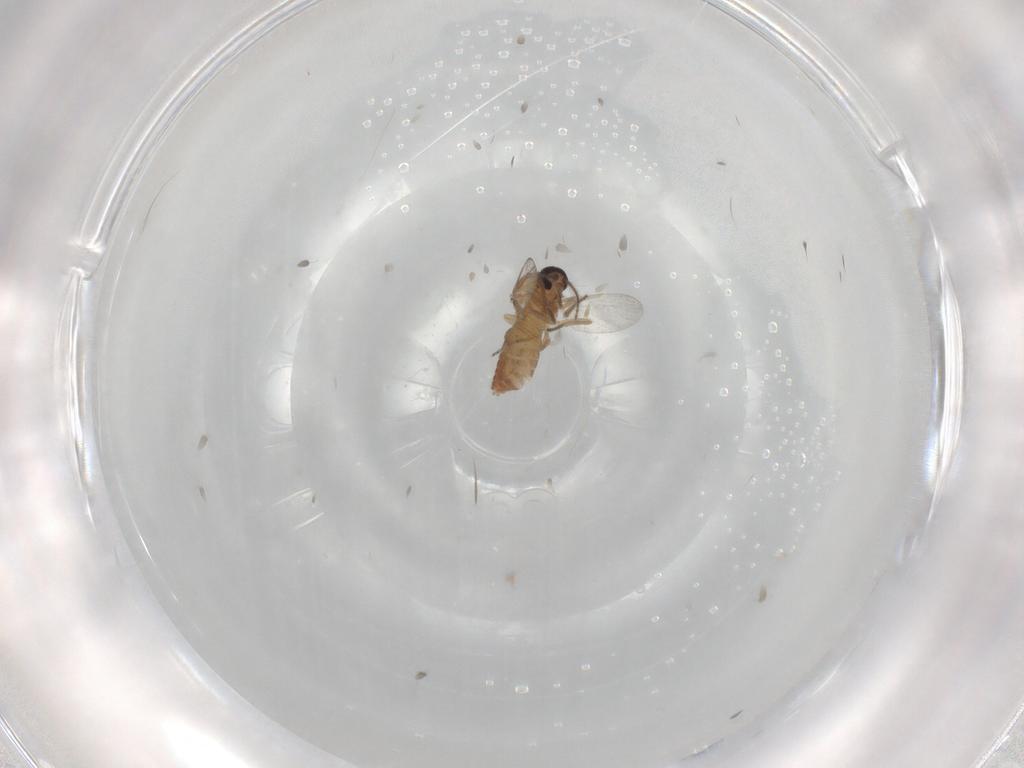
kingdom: Animalia
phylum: Arthropoda
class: Insecta
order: Diptera
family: Ceratopogonidae
